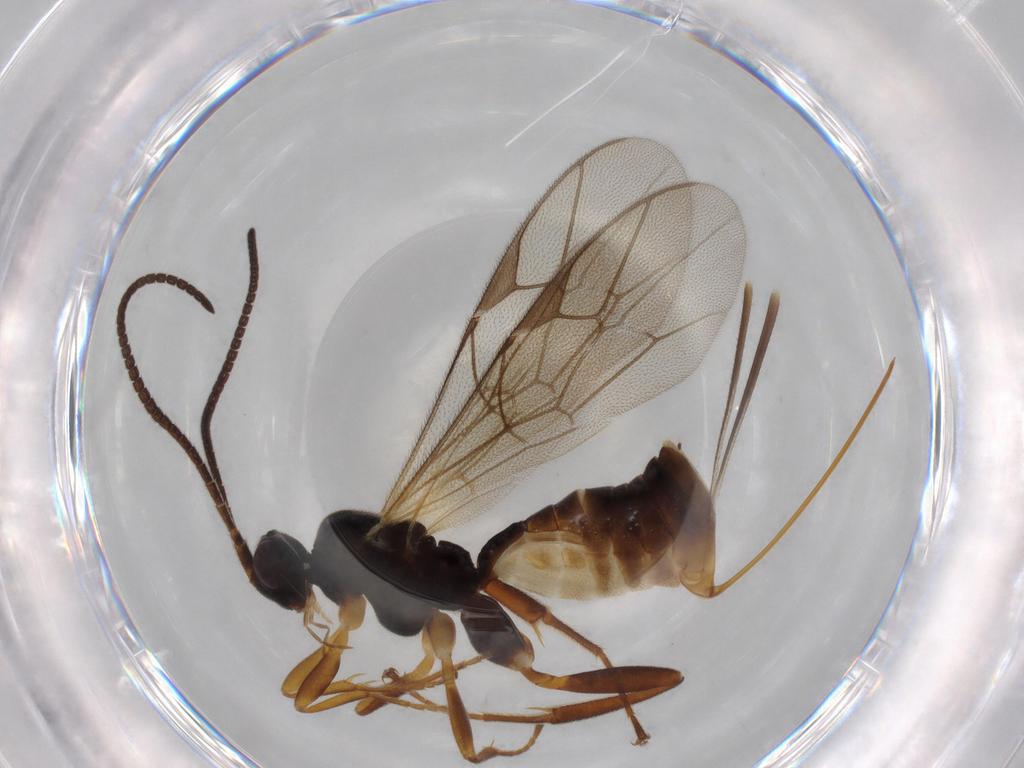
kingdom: Animalia
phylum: Arthropoda
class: Insecta
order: Hymenoptera
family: Ichneumonidae
